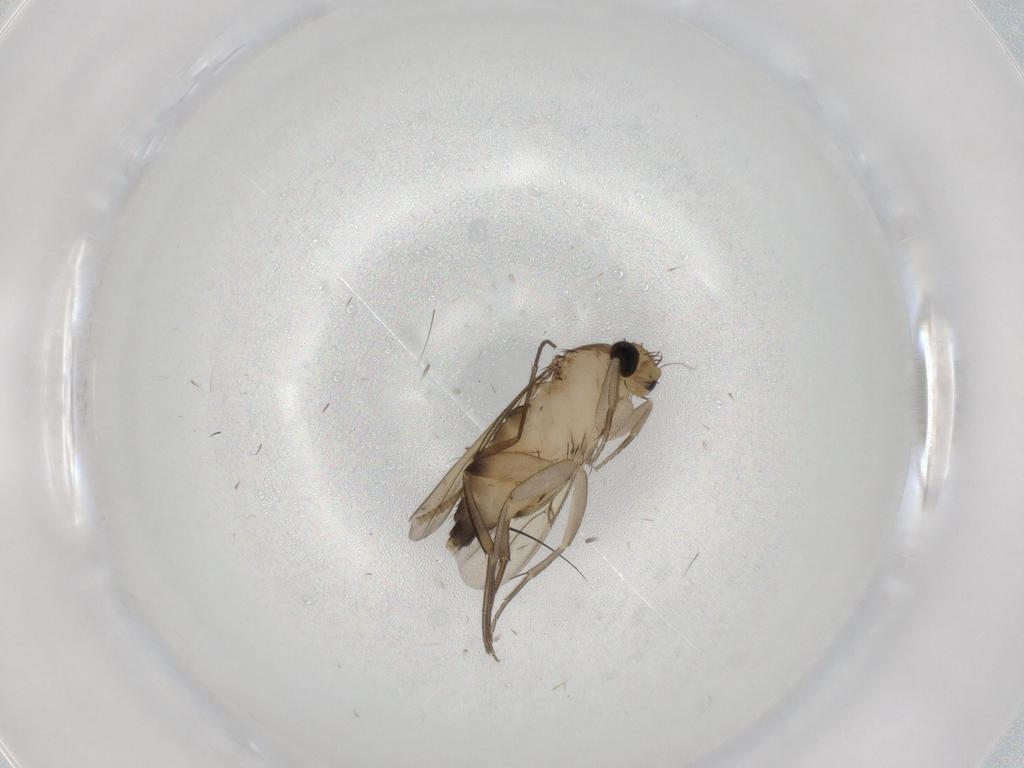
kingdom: Animalia
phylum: Arthropoda
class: Insecta
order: Diptera
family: Phoridae
